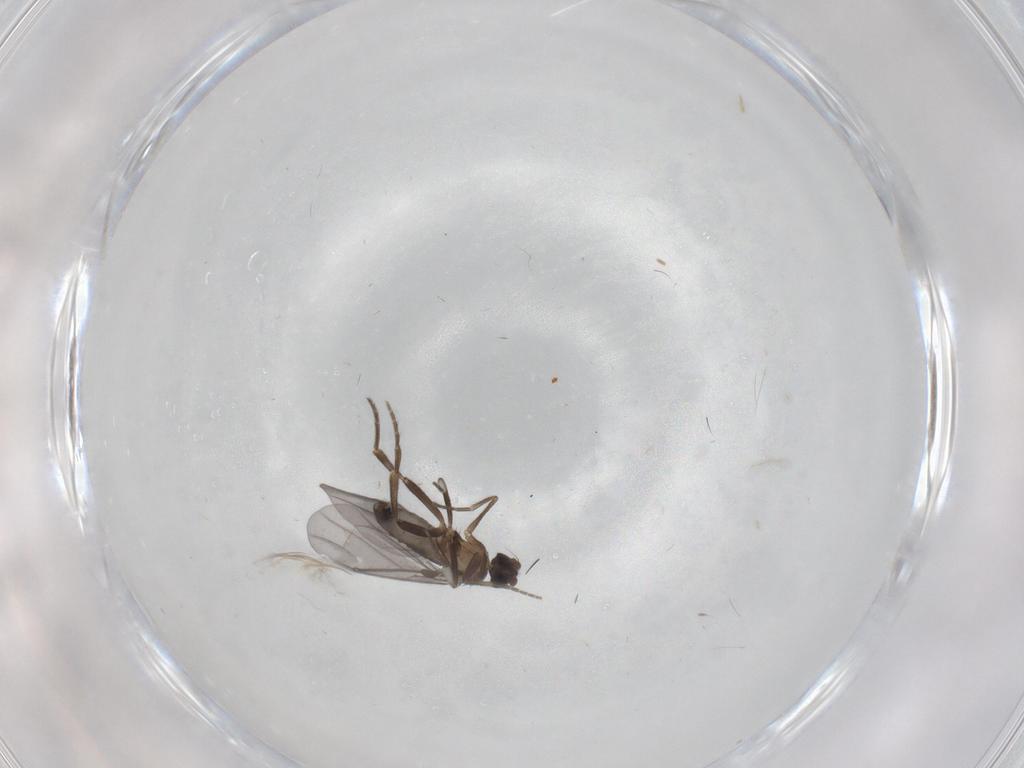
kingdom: Animalia
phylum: Arthropoda
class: Insecta
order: Diptera
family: Phoridae
